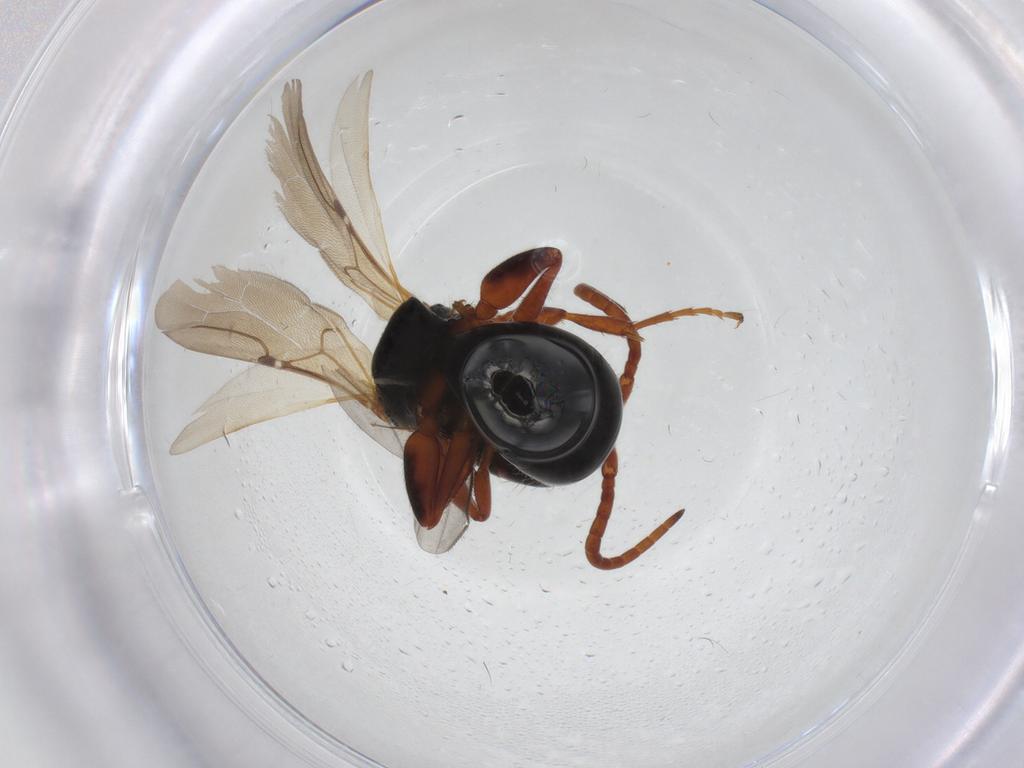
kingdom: Animalia
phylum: Arthropoda
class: Insecta
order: Hymenoptera
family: Bethylidae
